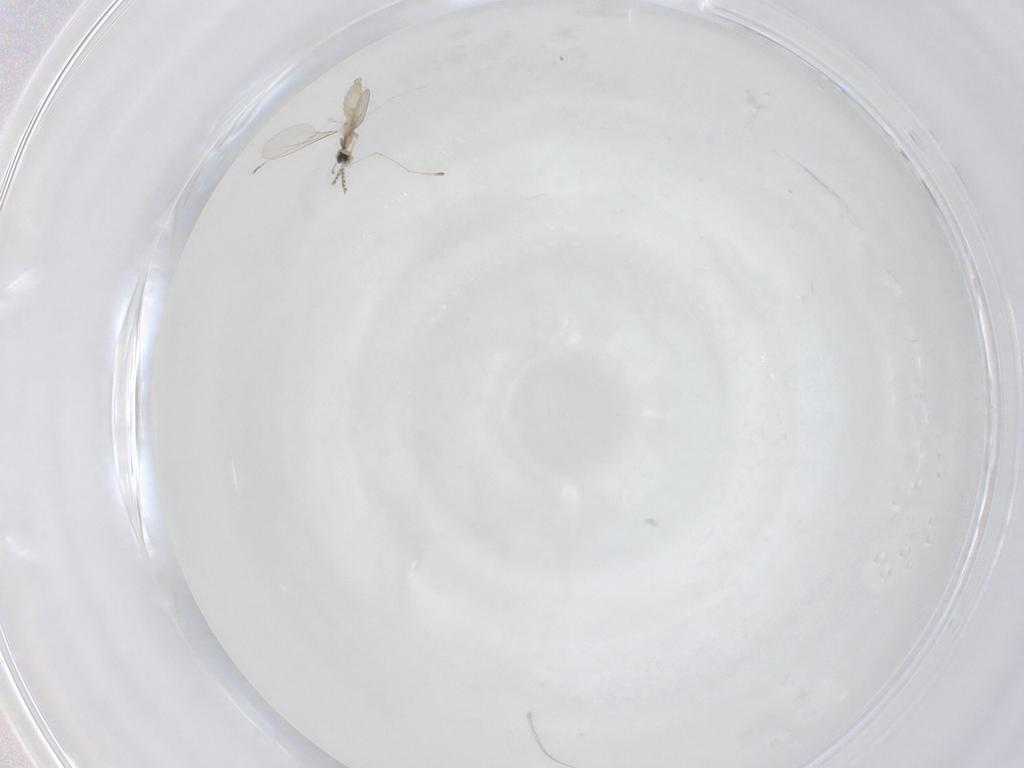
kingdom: Animalia
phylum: Arthropoda
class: Insecta
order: Diptera
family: Cecidomyiidae
